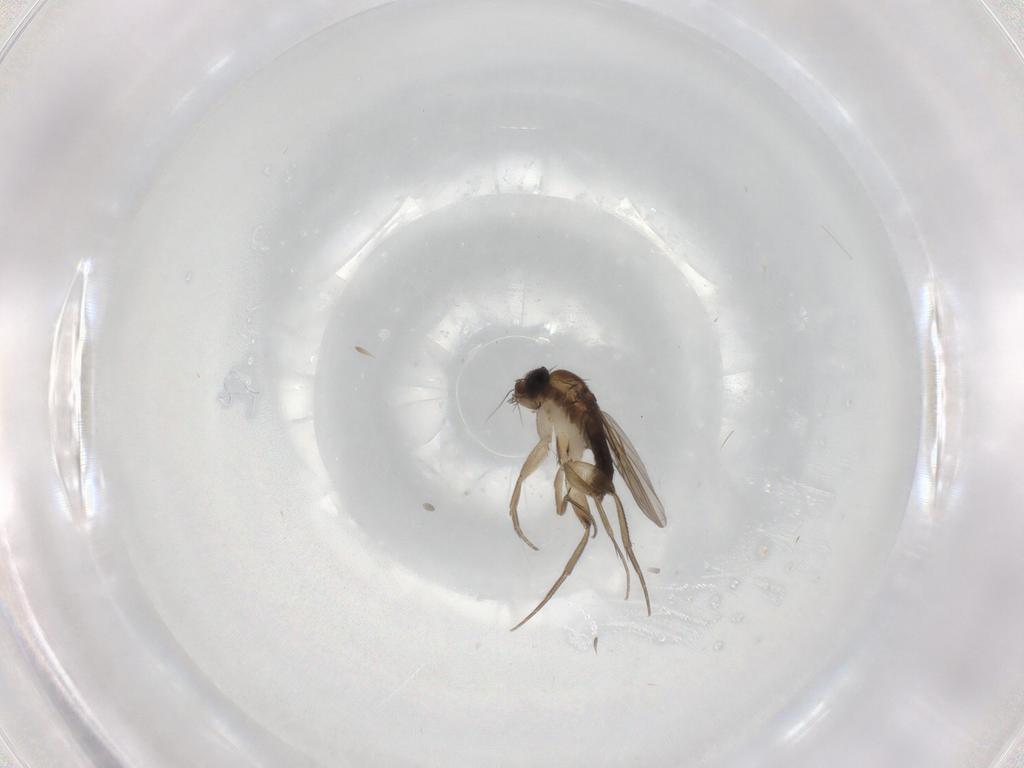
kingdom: Animalia
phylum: Arthropoda
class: Insecta
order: Diptera
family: Phoridae
